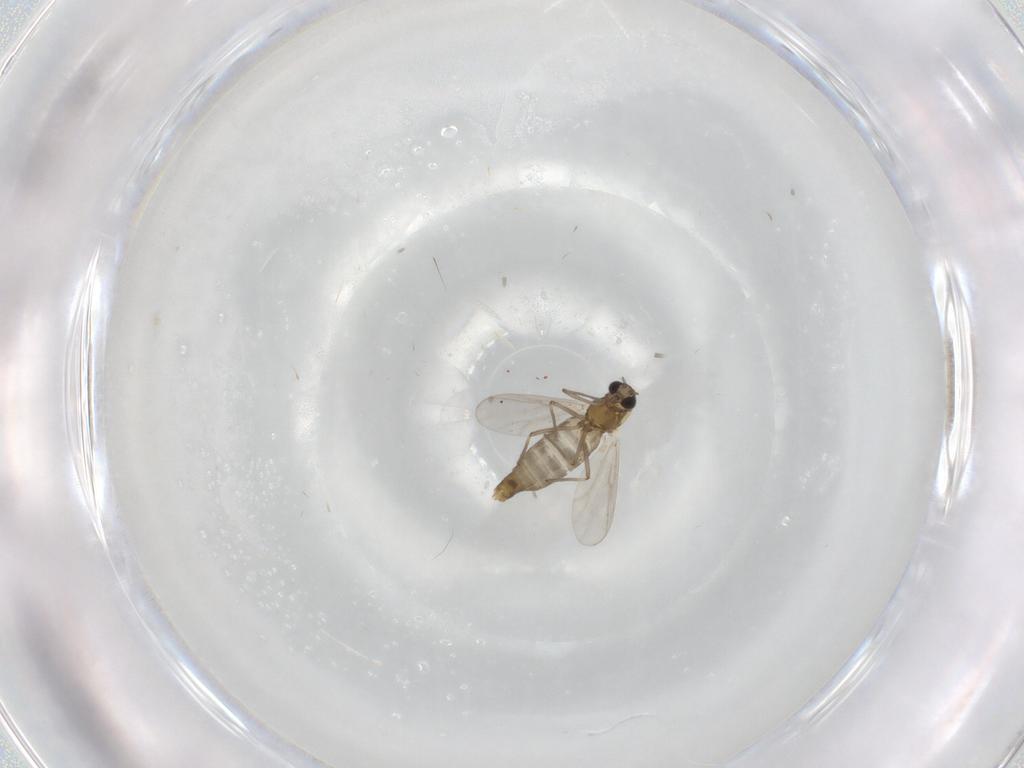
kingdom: Animalia
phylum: Arthropoda
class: Insecta
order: Diptera
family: Chironomidae
